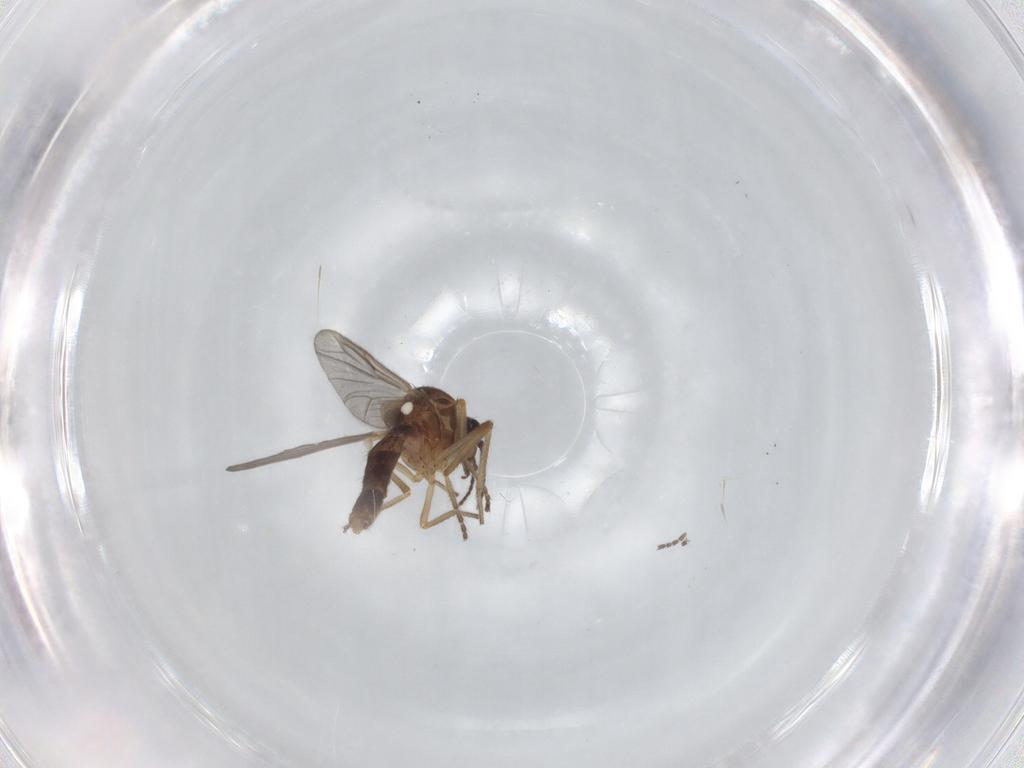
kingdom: Animalia
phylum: Arthropoda
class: Insecta
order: Diptera
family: Ceratopogonidae
